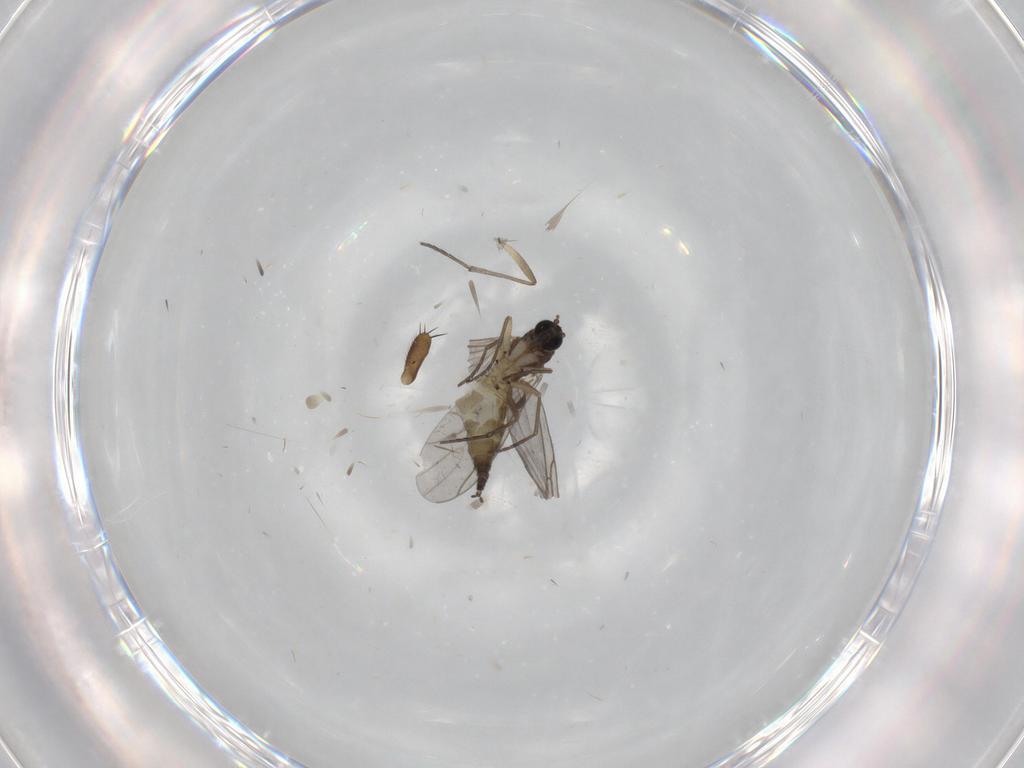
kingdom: Animalia
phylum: Arthropoda
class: Insecta
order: Diptera
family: Sciaridae
